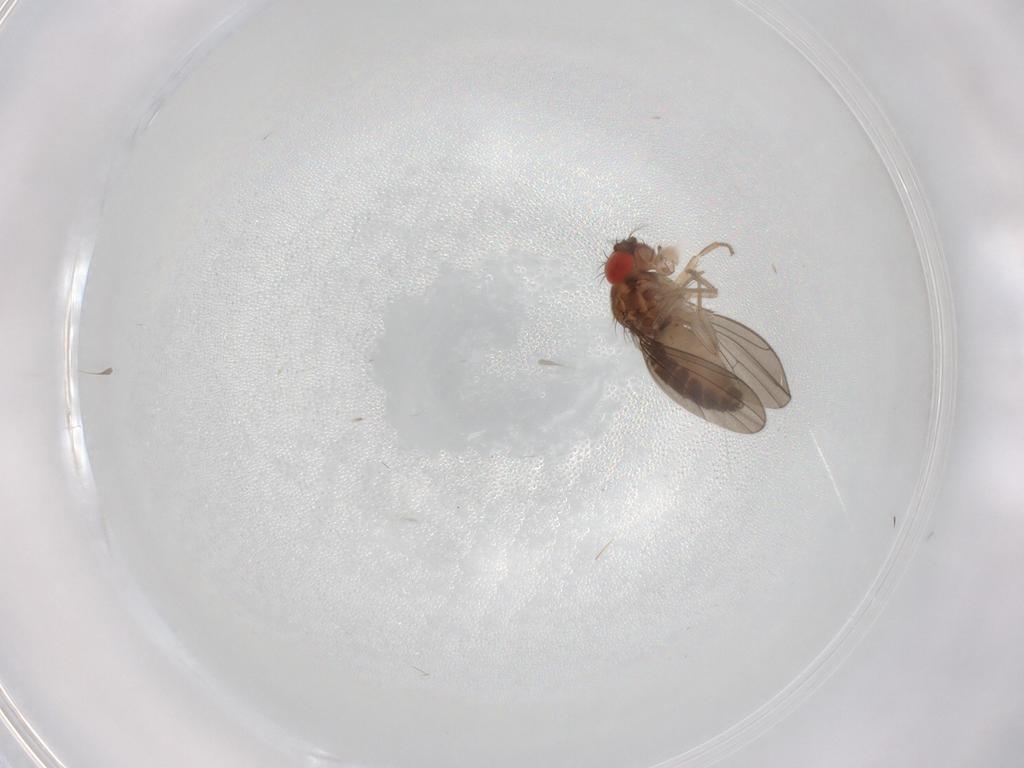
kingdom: Animalia
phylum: Arthropoda
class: Insecta
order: Diptera
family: Drosophilidae
